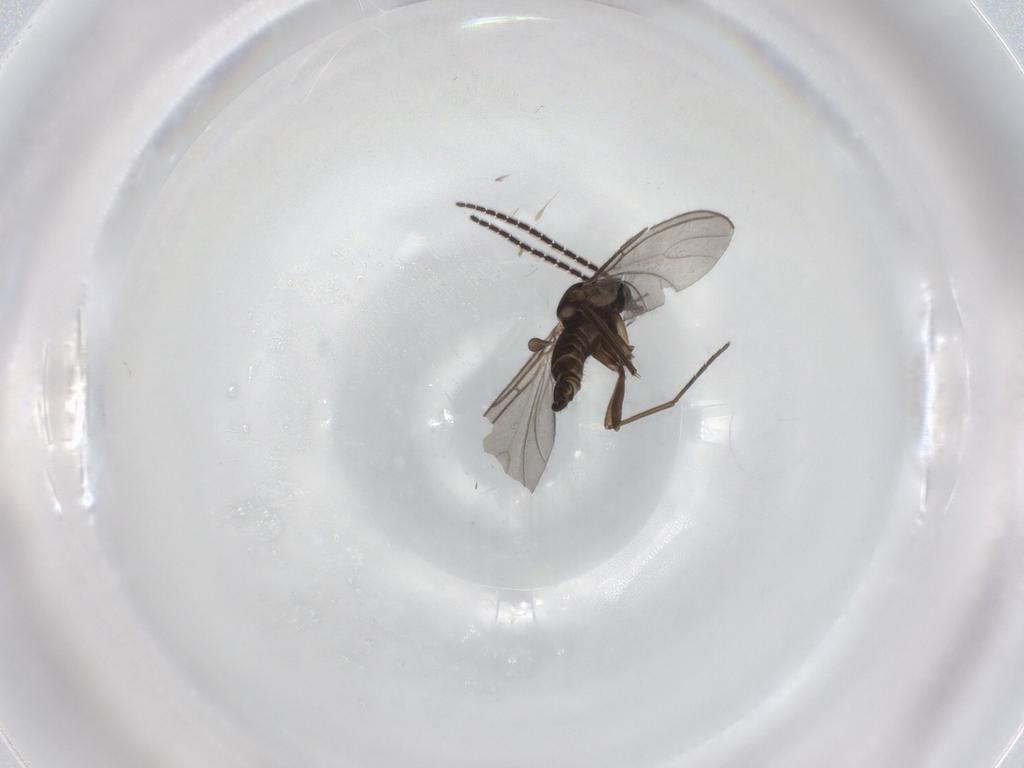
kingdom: Animalia
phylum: Arthropoda
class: Insecta
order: Diptera
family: Phoridae
